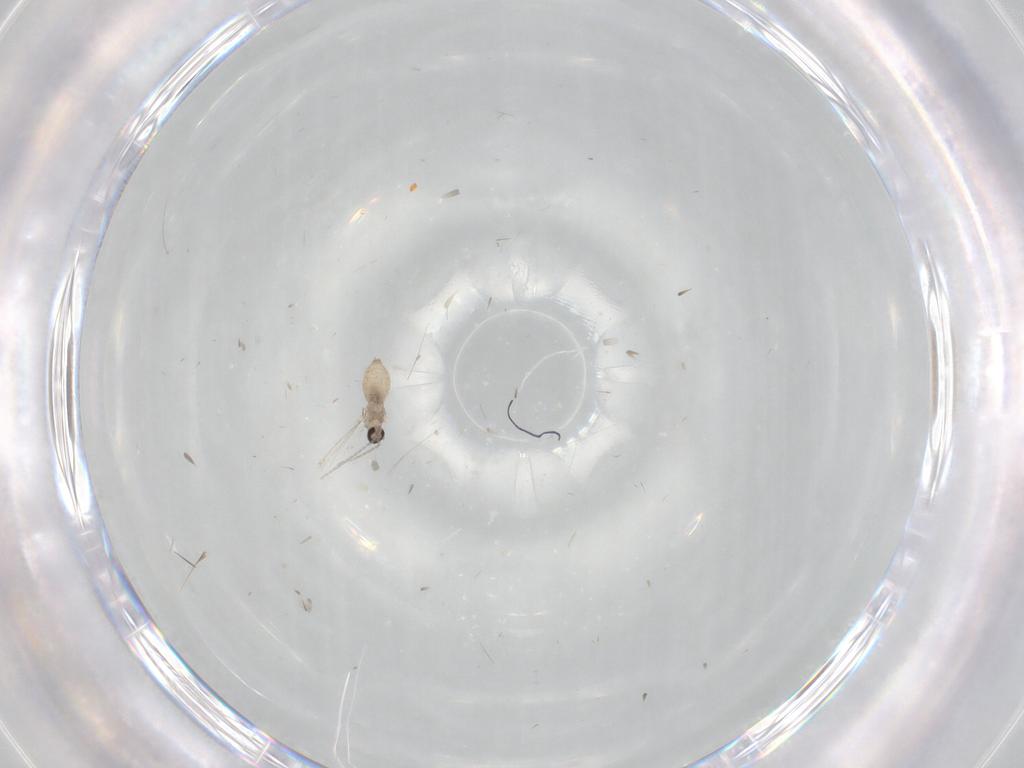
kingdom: Animalia
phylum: Arthropoda
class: Insecta
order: Diptera
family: Cecidomyiidae
